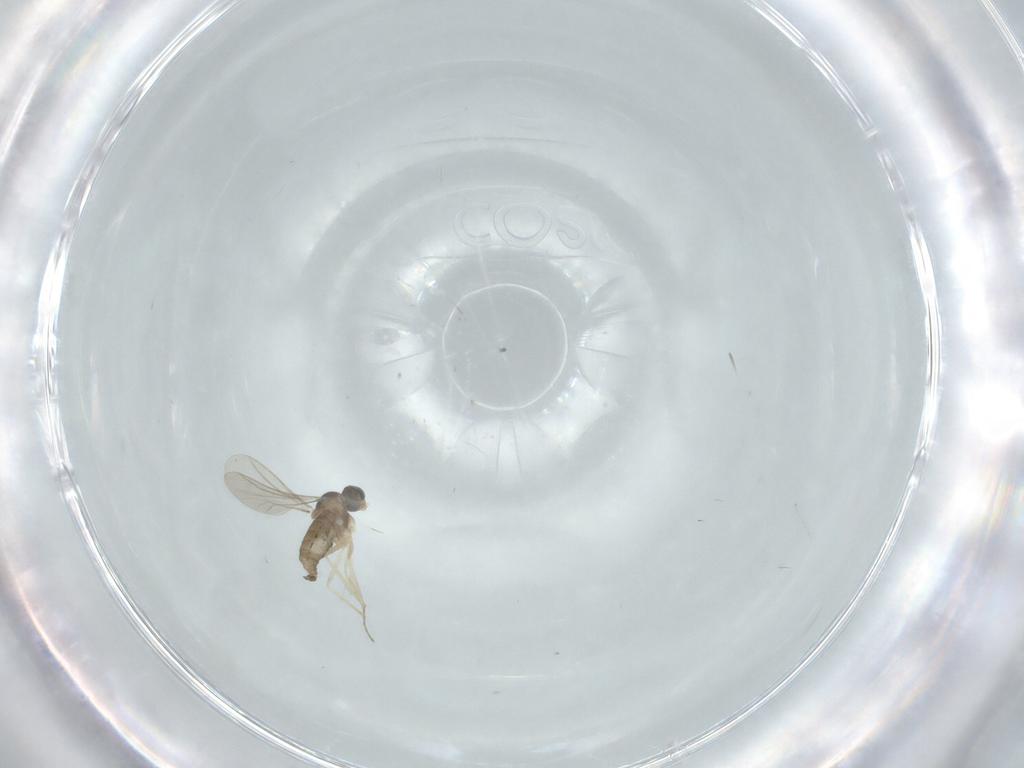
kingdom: Animalia
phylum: Arthropoda
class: Insecta
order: Diptera
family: Cecidomyiidae
